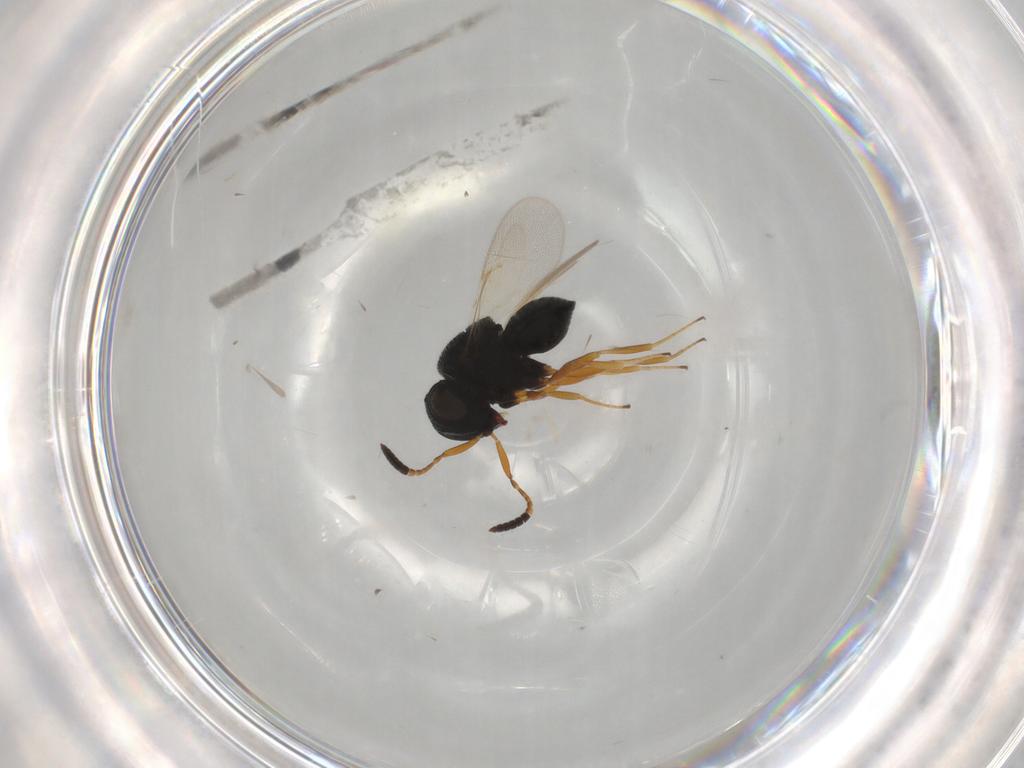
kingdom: Animalia
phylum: Arthropoda
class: Insecta
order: Hymenoptera
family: Scelionidae
